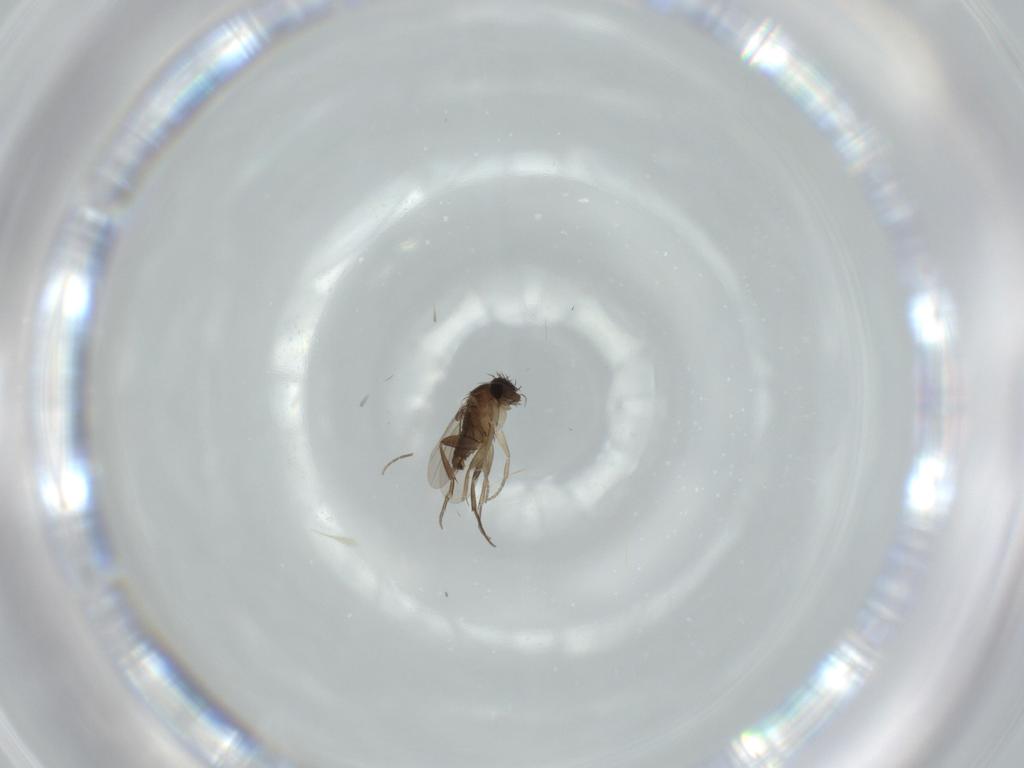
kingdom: Animalia
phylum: Arthropoda
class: Insecta
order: Diptera
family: Phoridae
